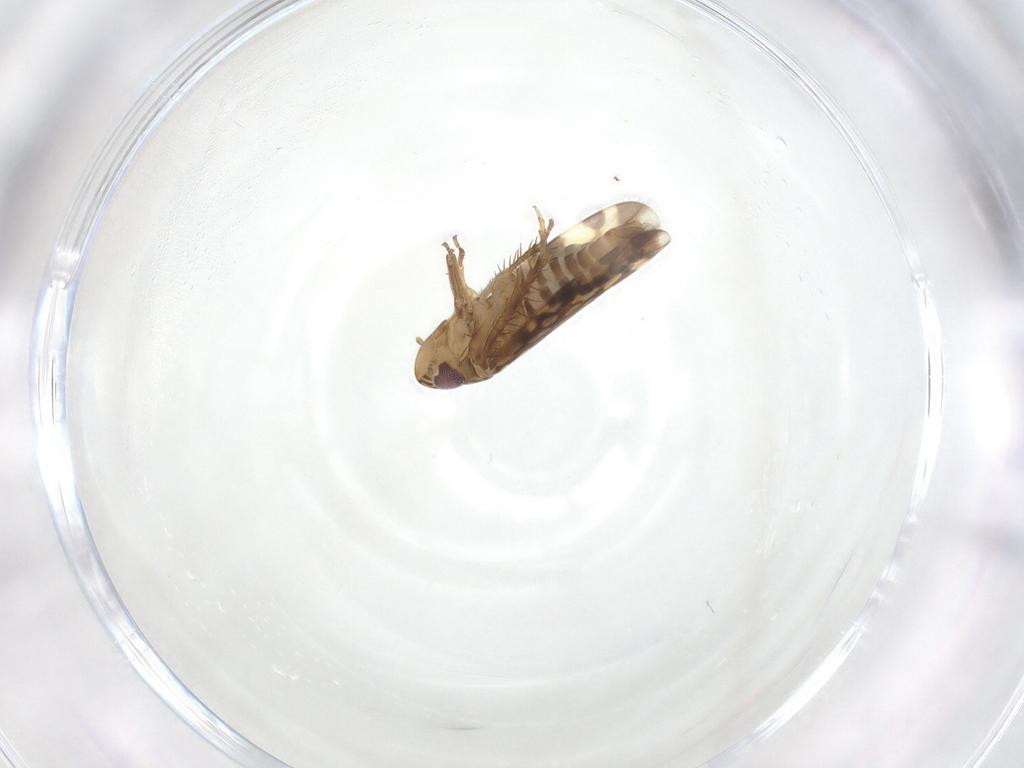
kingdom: Animalia
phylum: Arthropoda
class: Insecta
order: Hemiptera
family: Cicadellidae
